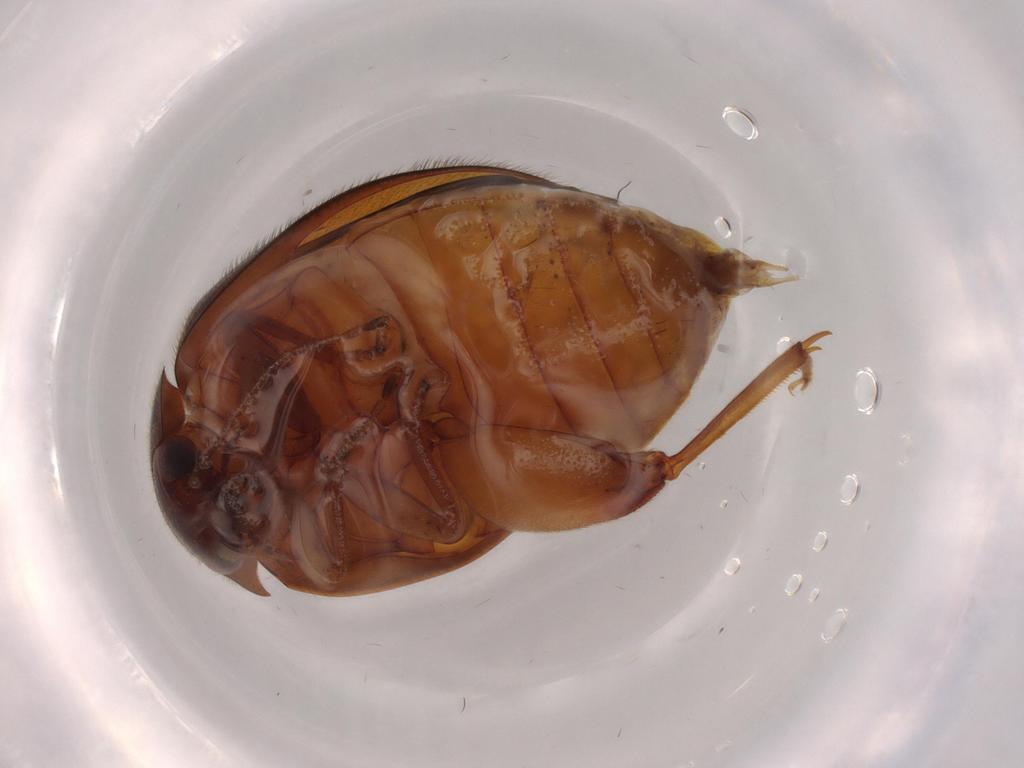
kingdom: Animalia
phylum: Arthropoda
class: Insecta
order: Coleoptera
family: Scirtidae
